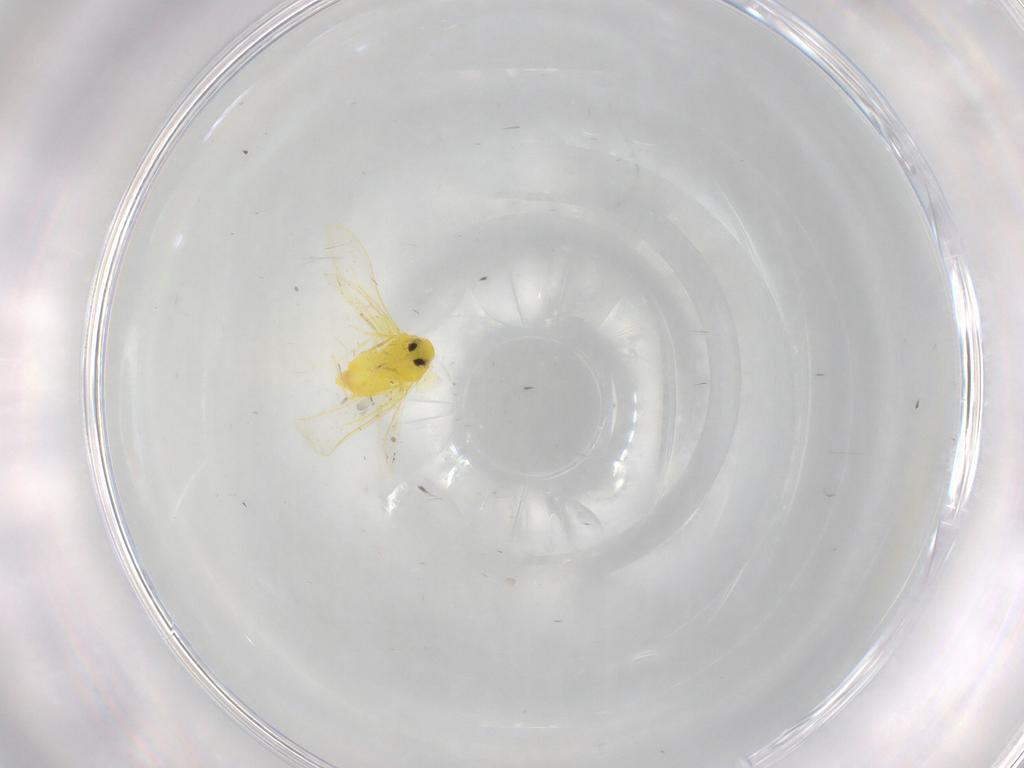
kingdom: Animalia
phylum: Arthropoda
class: Insecta
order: Hemiptera
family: Aleyrodidae
